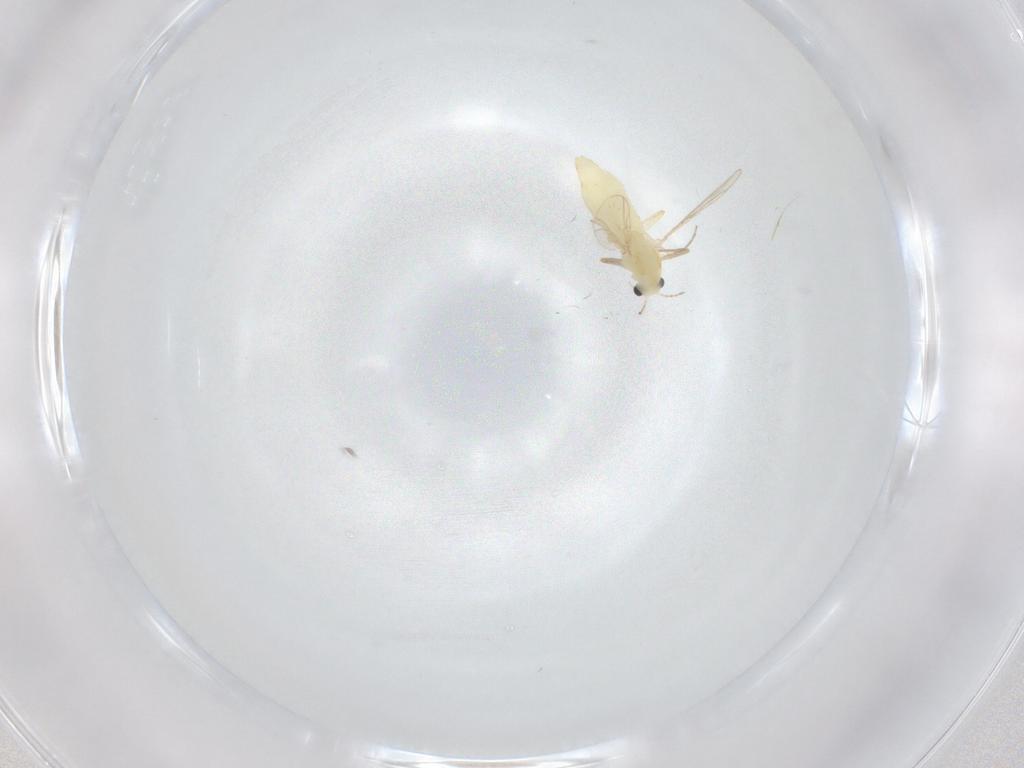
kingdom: Animalia
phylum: Arthropoda
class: Insecta
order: Diptera
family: Chironomidae
